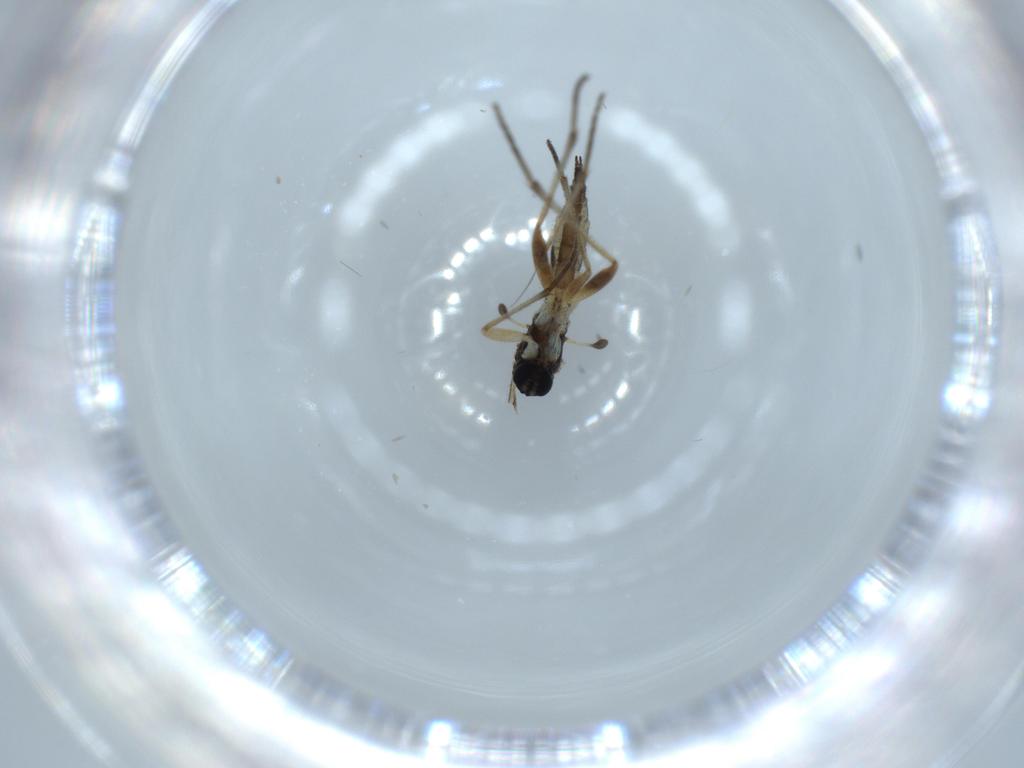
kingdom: Animalia
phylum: Arthropoda
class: Insecta
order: Diptera
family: Sciaridae
